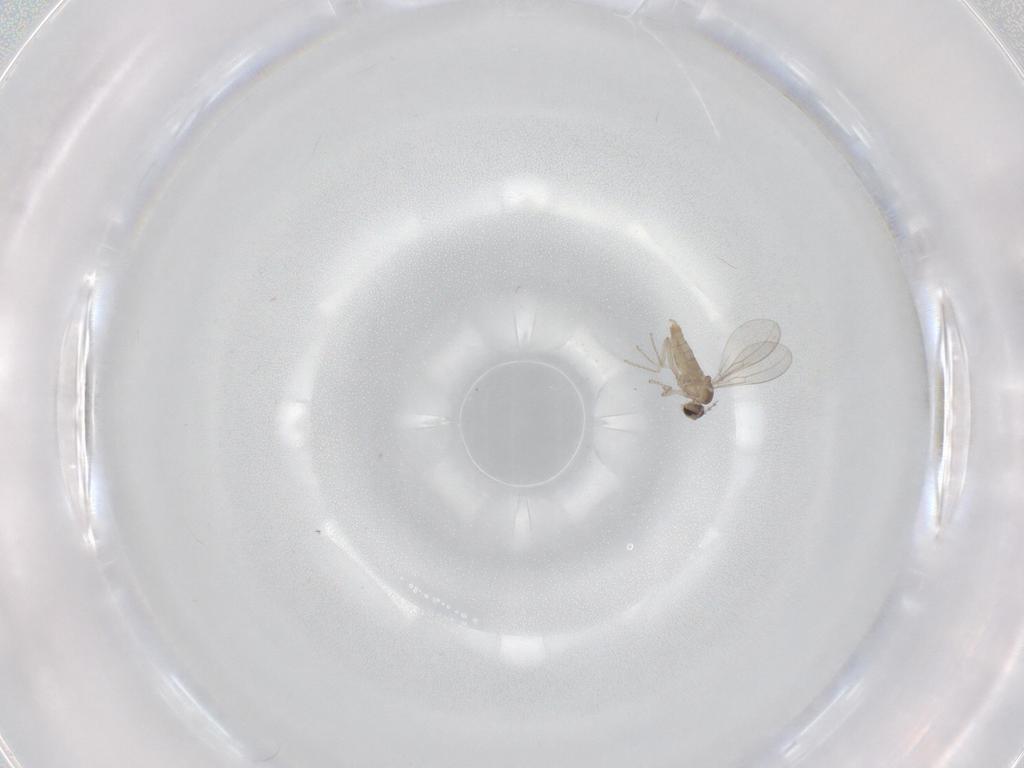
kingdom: Animalia
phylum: Arthropoda
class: Insecta
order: Diptera
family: Cecidomyiidae
